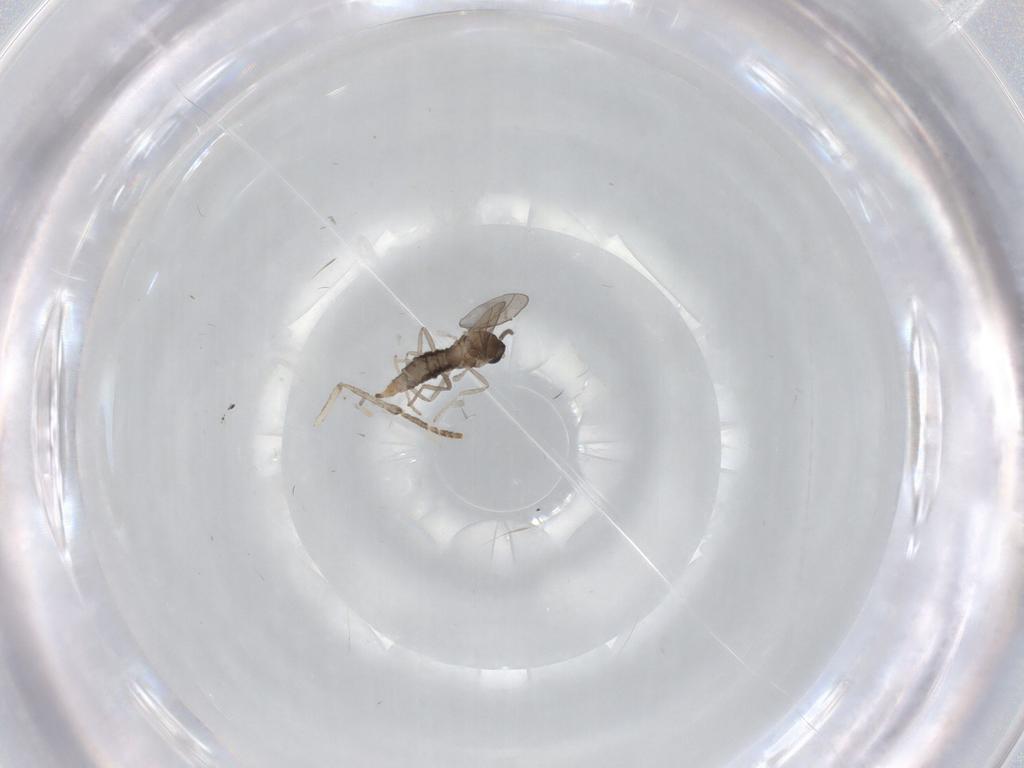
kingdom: Animalia
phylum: Arthropoda
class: Insecta
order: Diptera
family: Psychodidae
